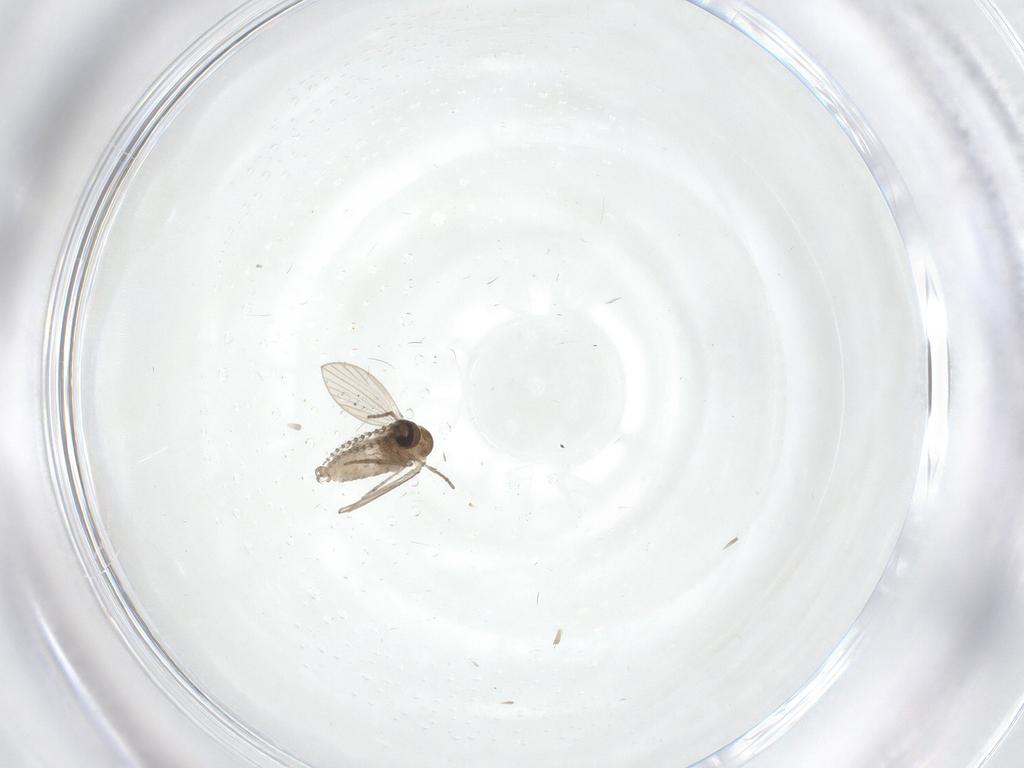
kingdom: Animalia
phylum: Arthropoda
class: Insecta
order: Diptera
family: Psychodidae
